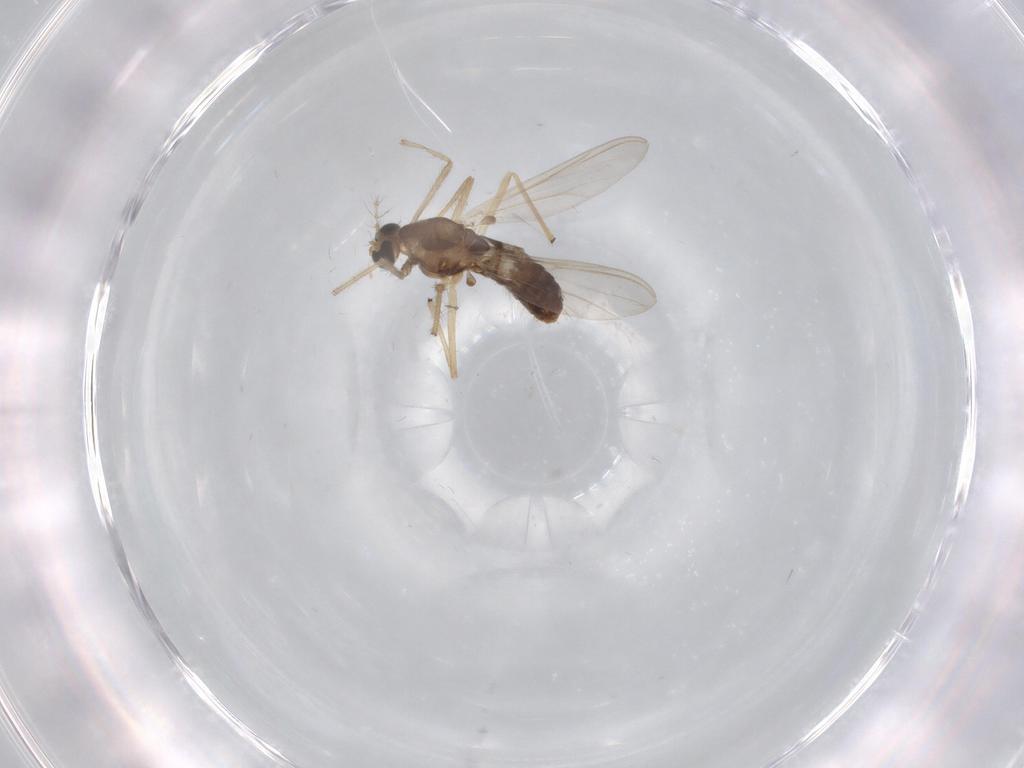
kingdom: Animalia
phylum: Arthropoda
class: Insecta
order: Diptera
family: Chironomidae
